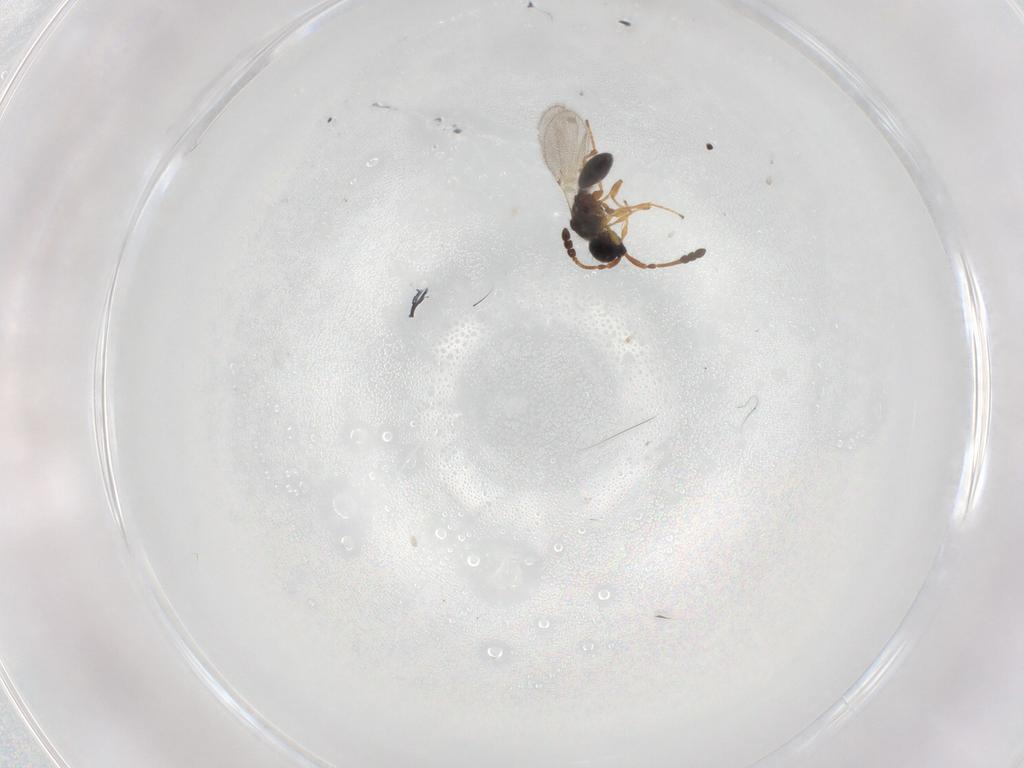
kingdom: Animalia
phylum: Arthropoda
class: Insecta
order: Hymenoptera
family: Diapriidae
